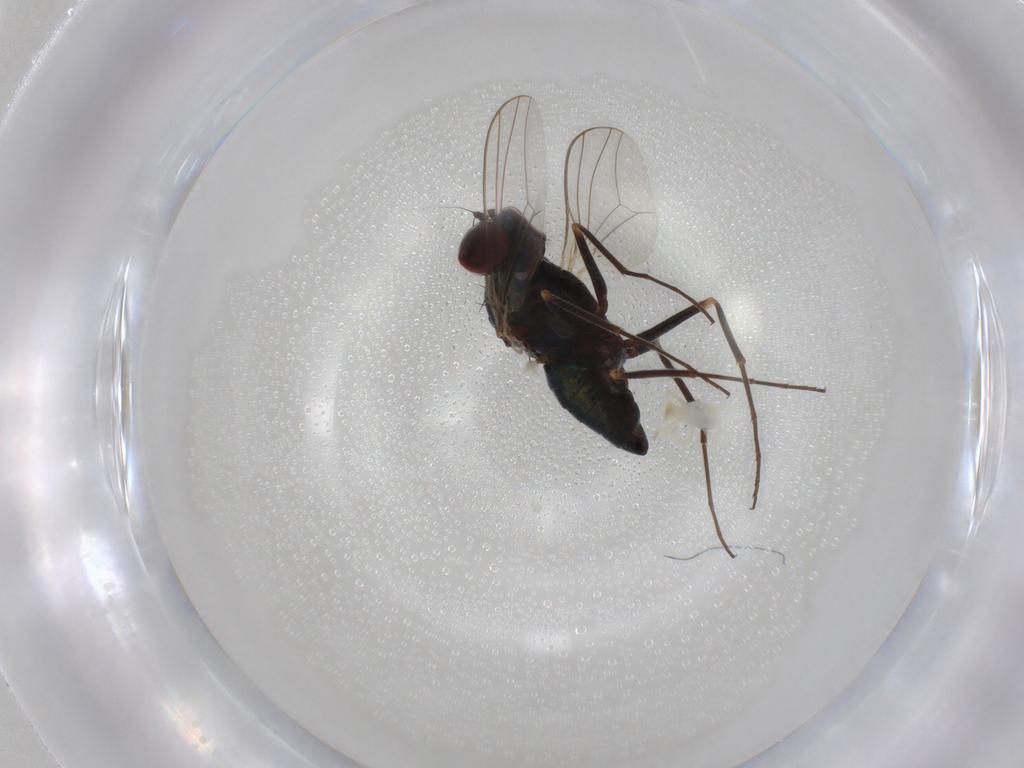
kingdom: Animalia
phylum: Arthropoda
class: Insecta
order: Diptera
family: Dolichopodidae
